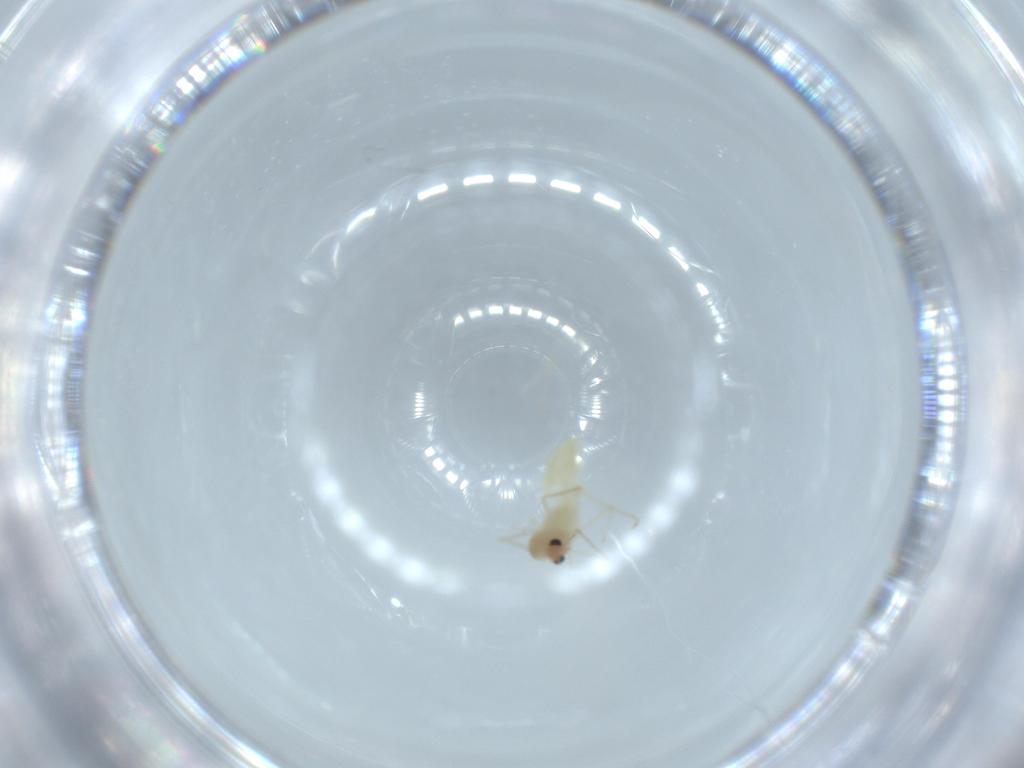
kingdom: Animalia
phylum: Arthropoda
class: Insecta
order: Diptera
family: Chironomidae
